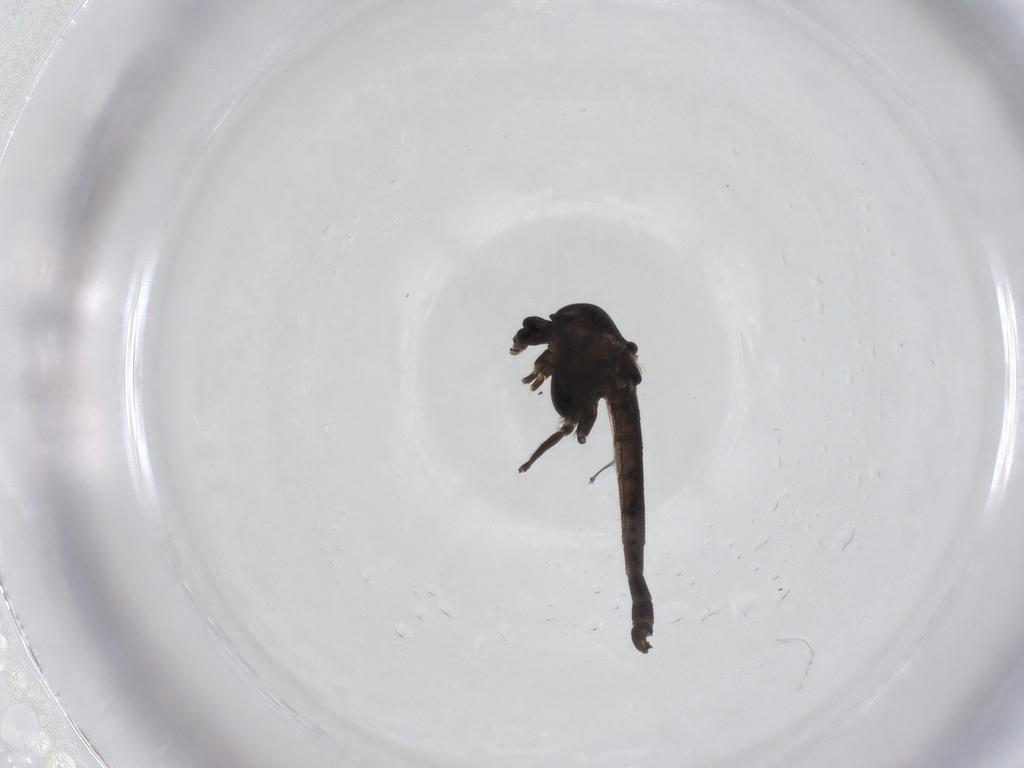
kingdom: Animalia
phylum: Arthropoda
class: Insecta
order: Diptera
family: Chironomidae
